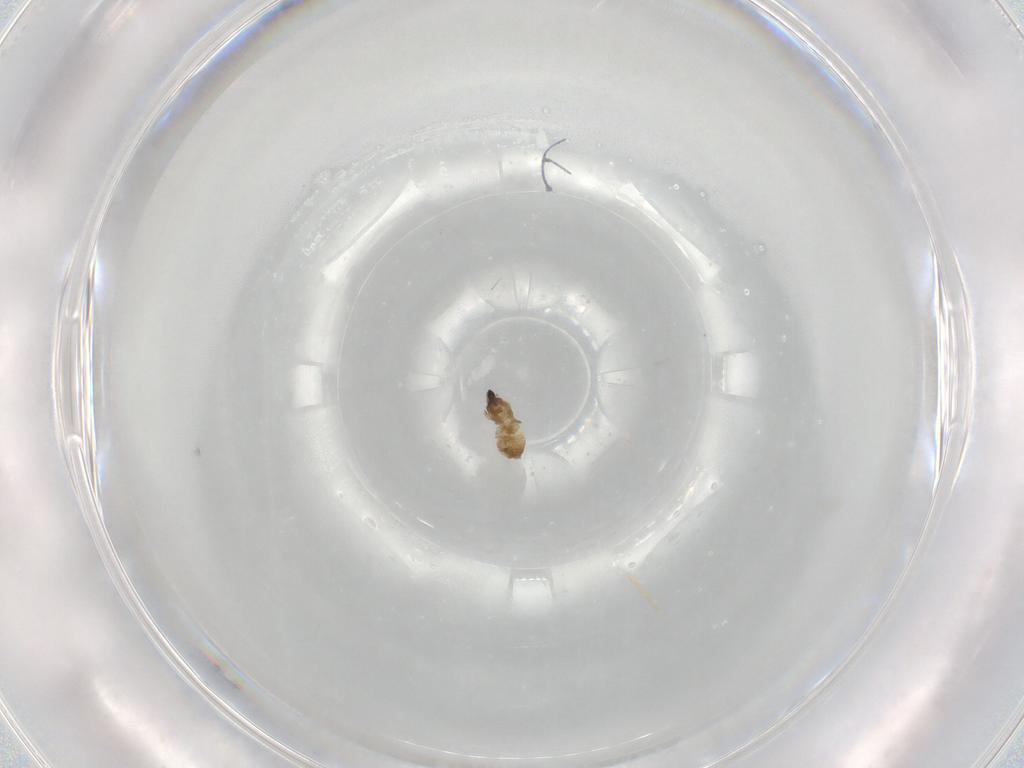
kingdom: Animalia
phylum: Arthropoda
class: Insecta
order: Diptera
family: Cecidomyiidae
